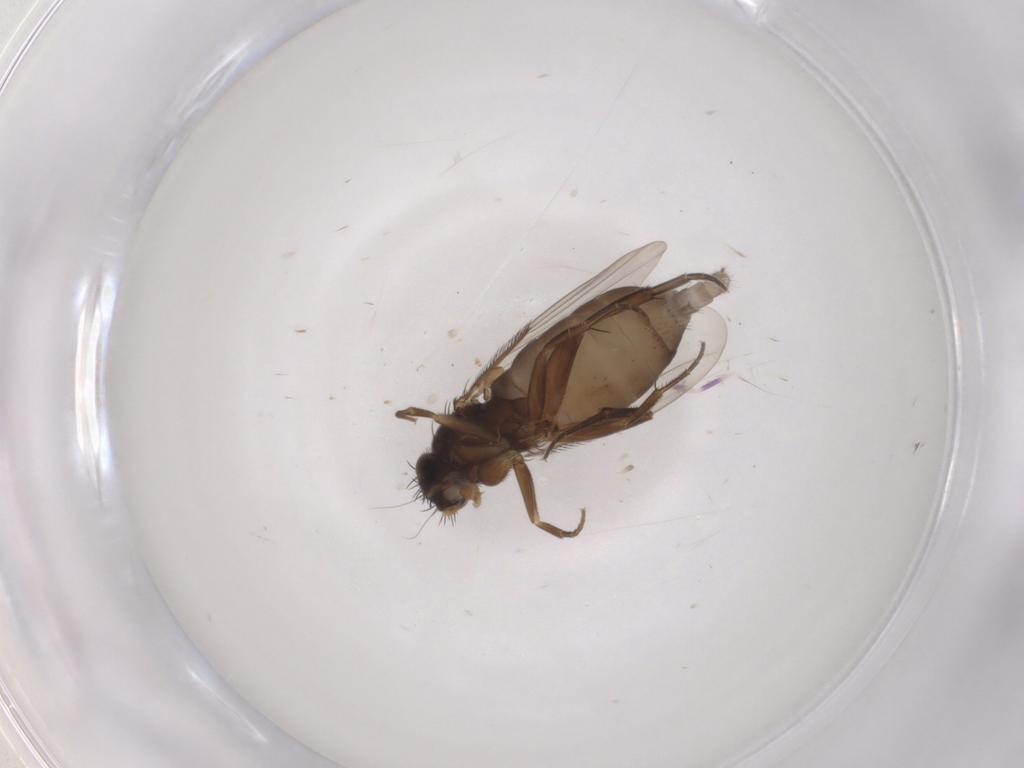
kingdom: Animalia
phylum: Arthropoda
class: Insecta
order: Diptera
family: Phoridae
